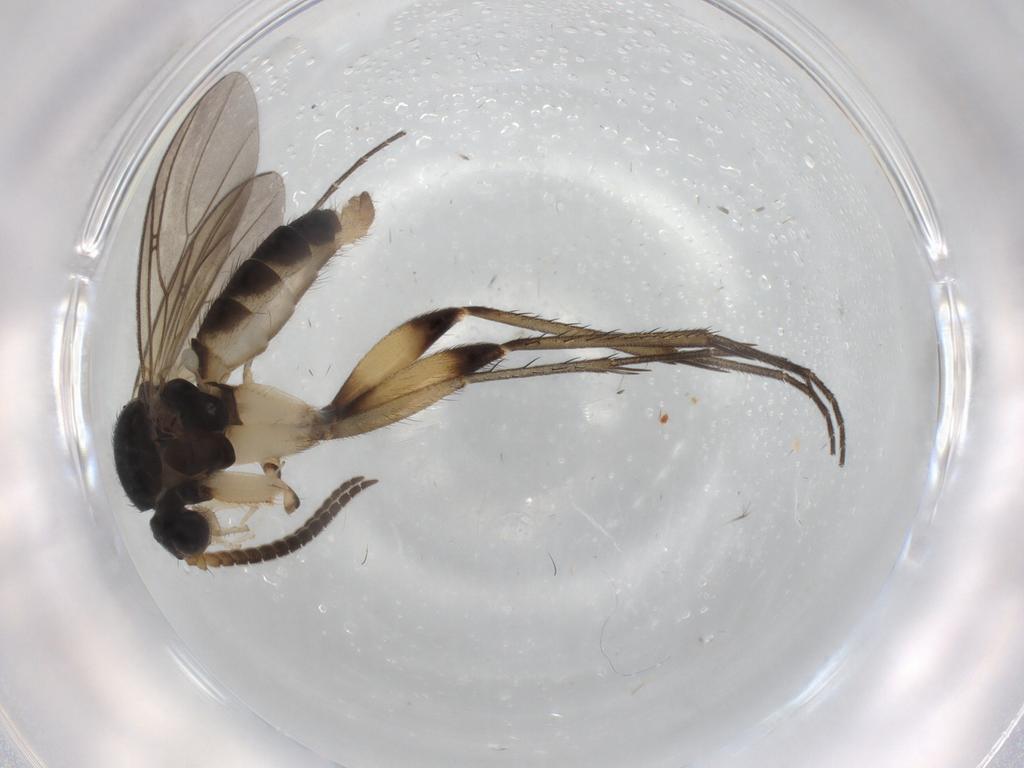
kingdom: Animalia
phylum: Arthropoda
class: Insecta
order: Diptera
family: Hybotidae
